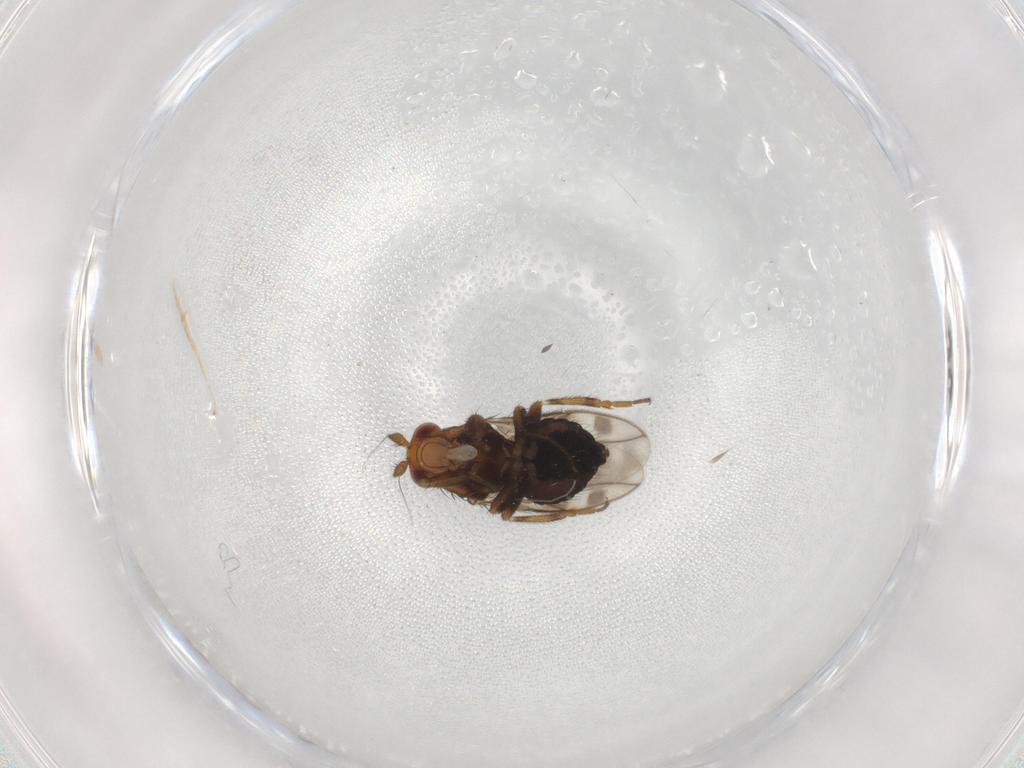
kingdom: Animalia
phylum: Arthropoda
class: Insecta
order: Diptera
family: Sphaeroceridae
